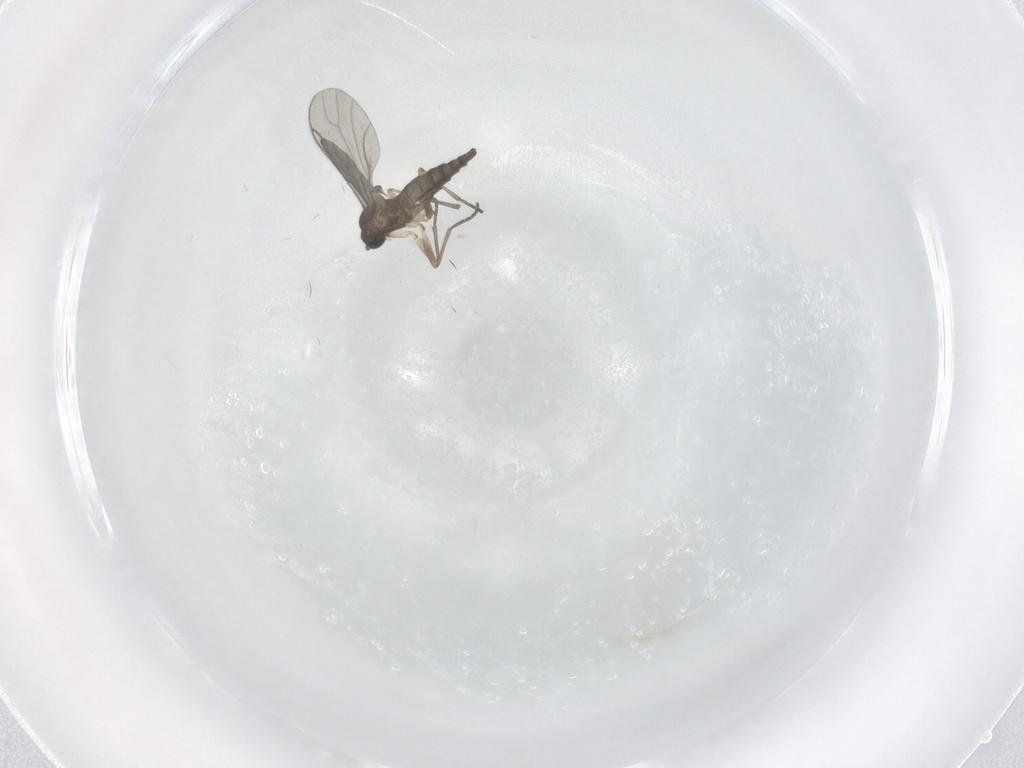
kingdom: Animalia
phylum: Arthropoda
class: Insecta
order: Diptera
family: Sciaridae
